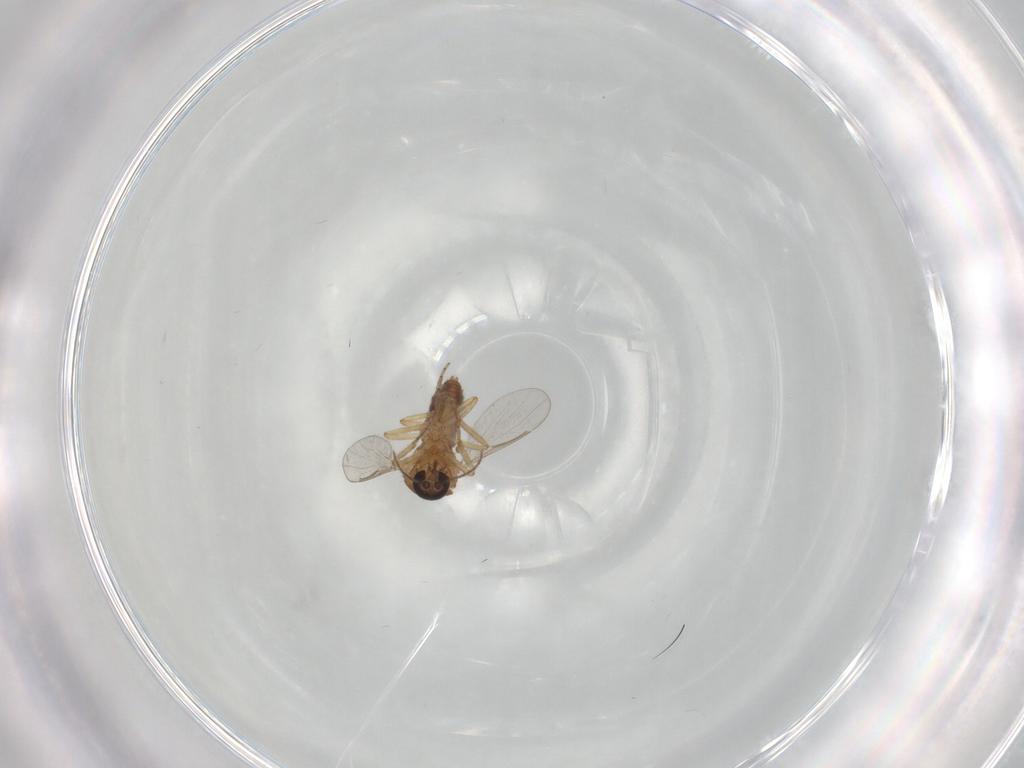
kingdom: Animalia
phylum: Arthropoda
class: Insecta
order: Diptera
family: Ceratopogonidae
